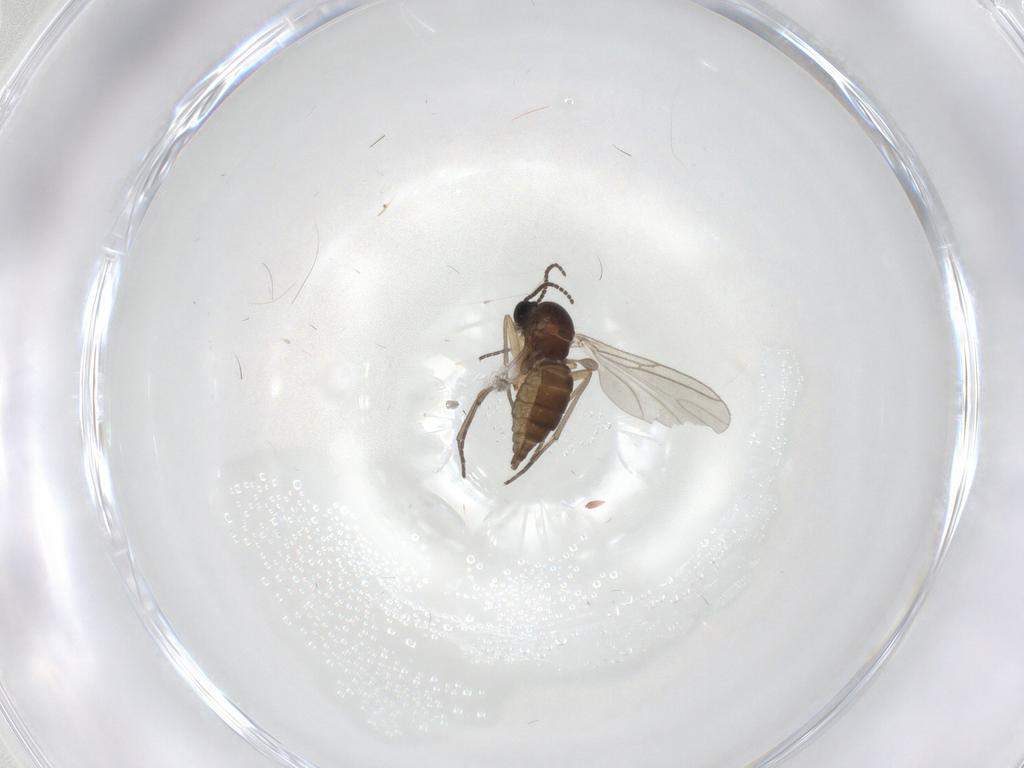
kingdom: Animalia
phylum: Arthropoda
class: Insecta
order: Diptera
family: Sciaridae
